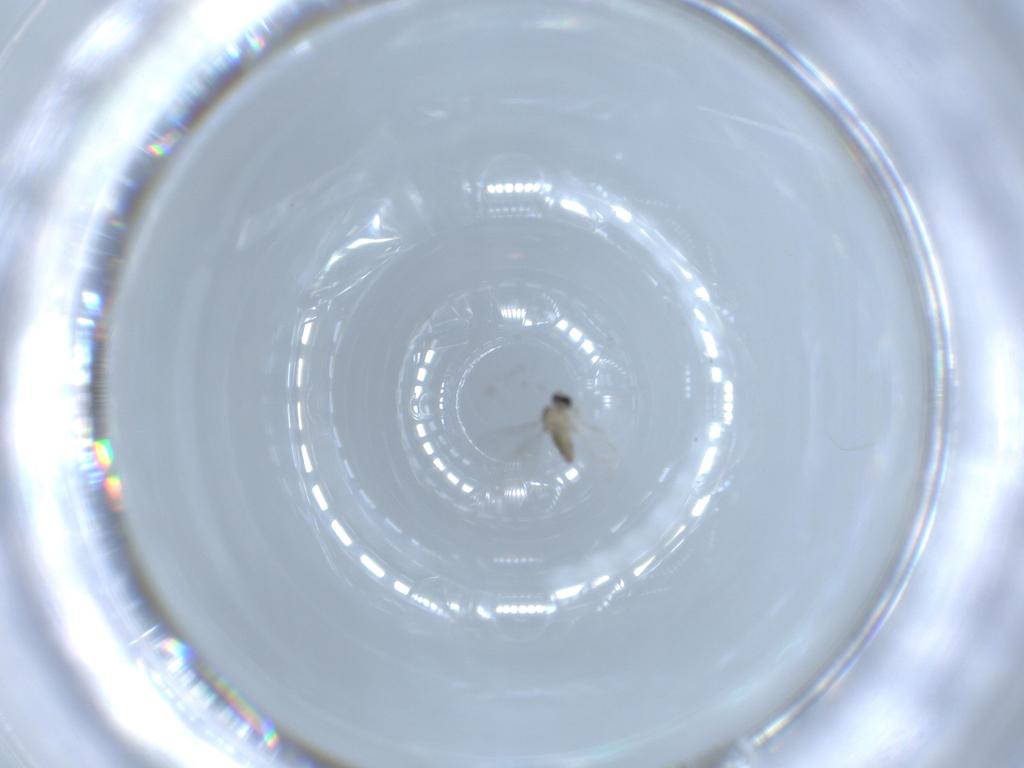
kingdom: Animalia
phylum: Arthropoda
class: Insecta
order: Diptera
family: Cecidomyiidae
